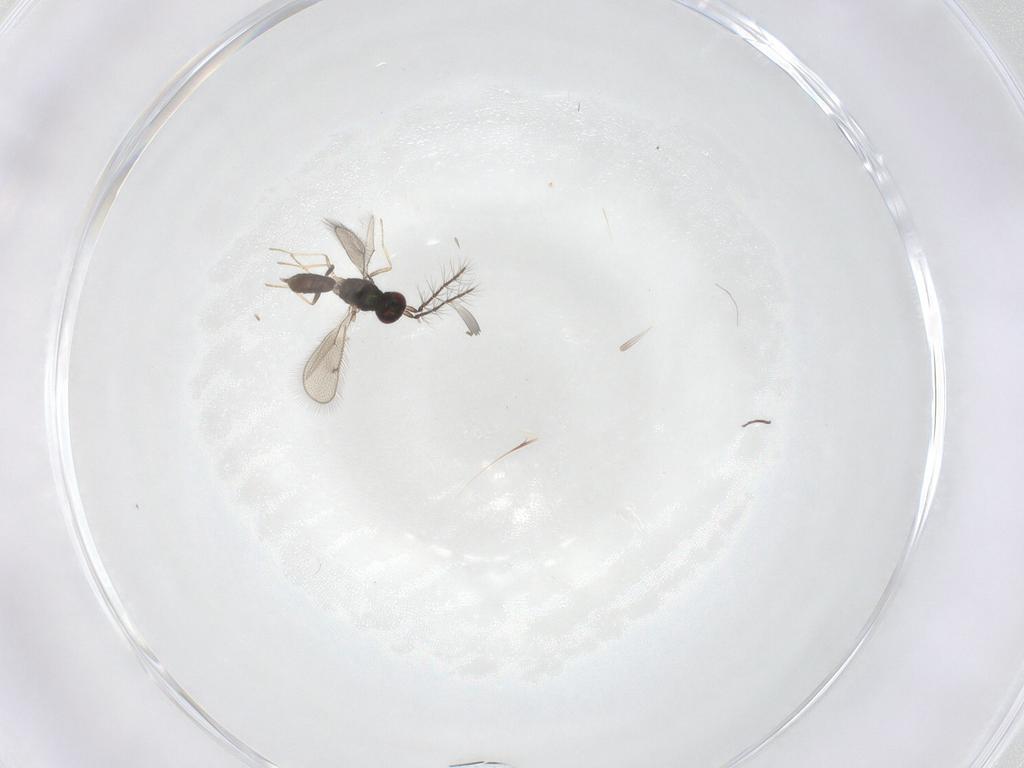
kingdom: Animalia
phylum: Arthropoda
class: Insecta
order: Hymenoptera
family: Eulophidae
